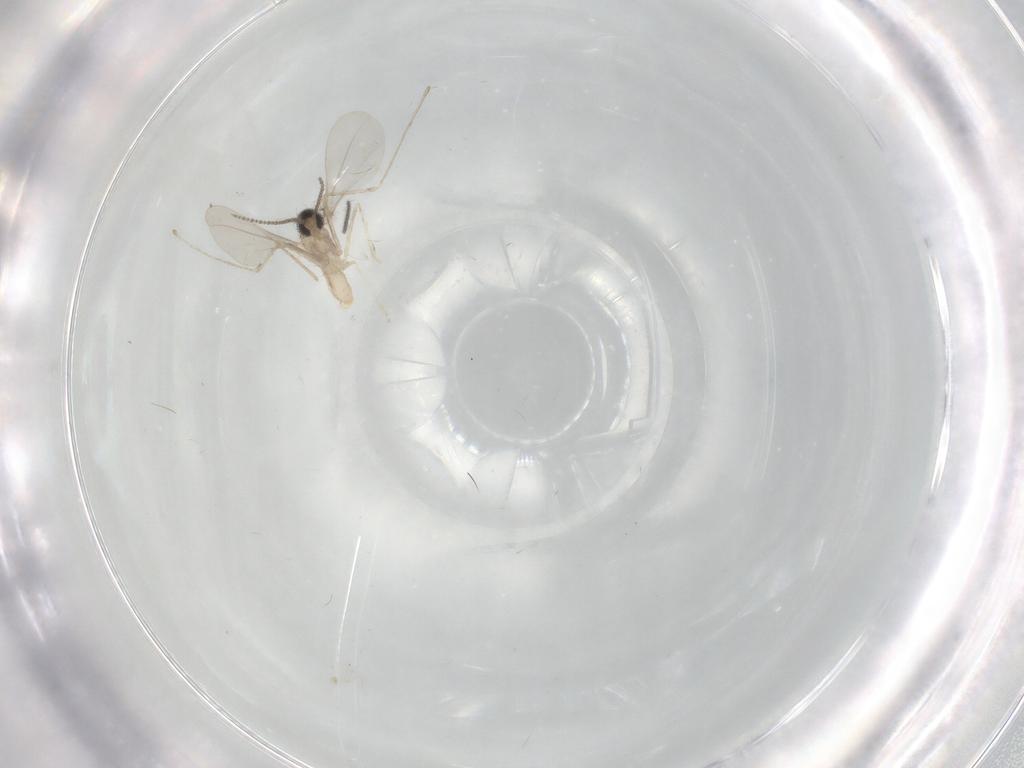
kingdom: Animalia
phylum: Arthropoda
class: Insecta
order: Diptera
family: Cecidomyiidae
